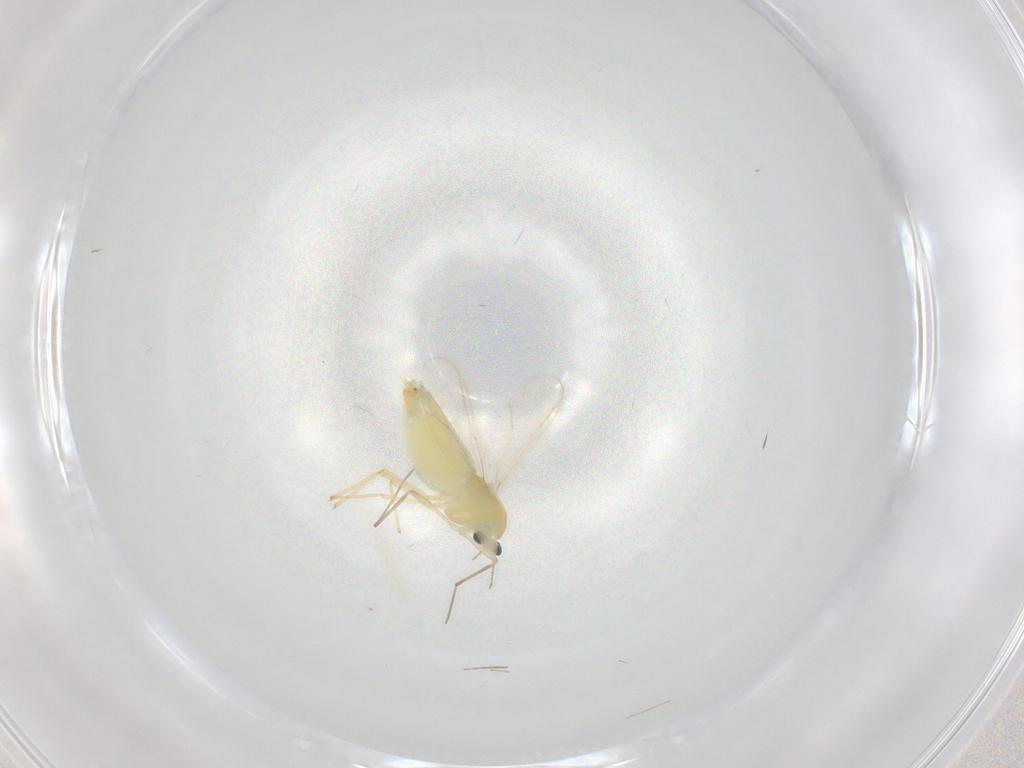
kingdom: Animalia
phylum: Arthropoda
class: Insecta
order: Diptera
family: Chironomidae
